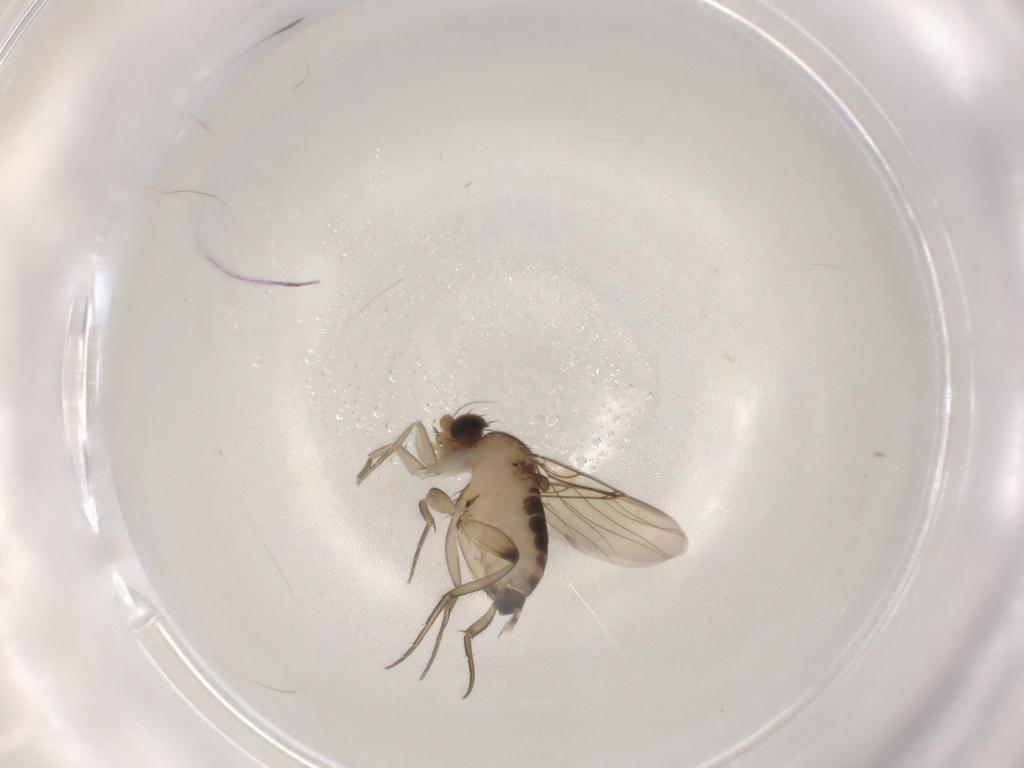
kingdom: Animalia
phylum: Arthropoda
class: Insecta
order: Diptera
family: Phoridae
